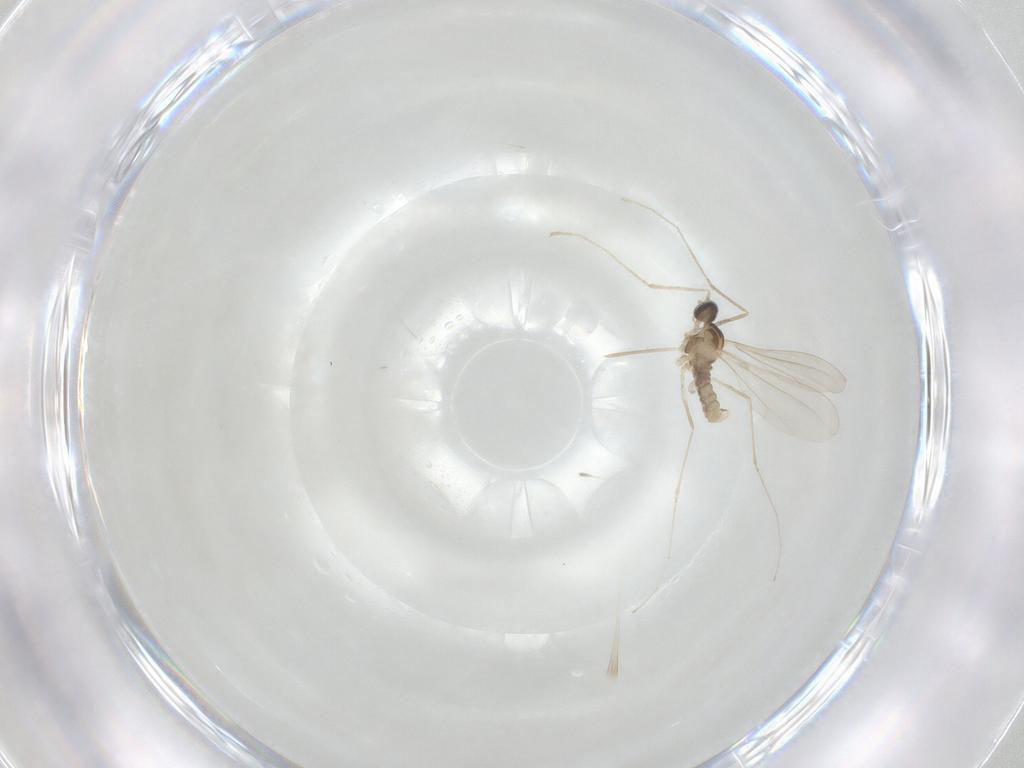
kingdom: Animalia
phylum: Arthropoda
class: Insecta
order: Diptera
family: Cecidomyiidae
